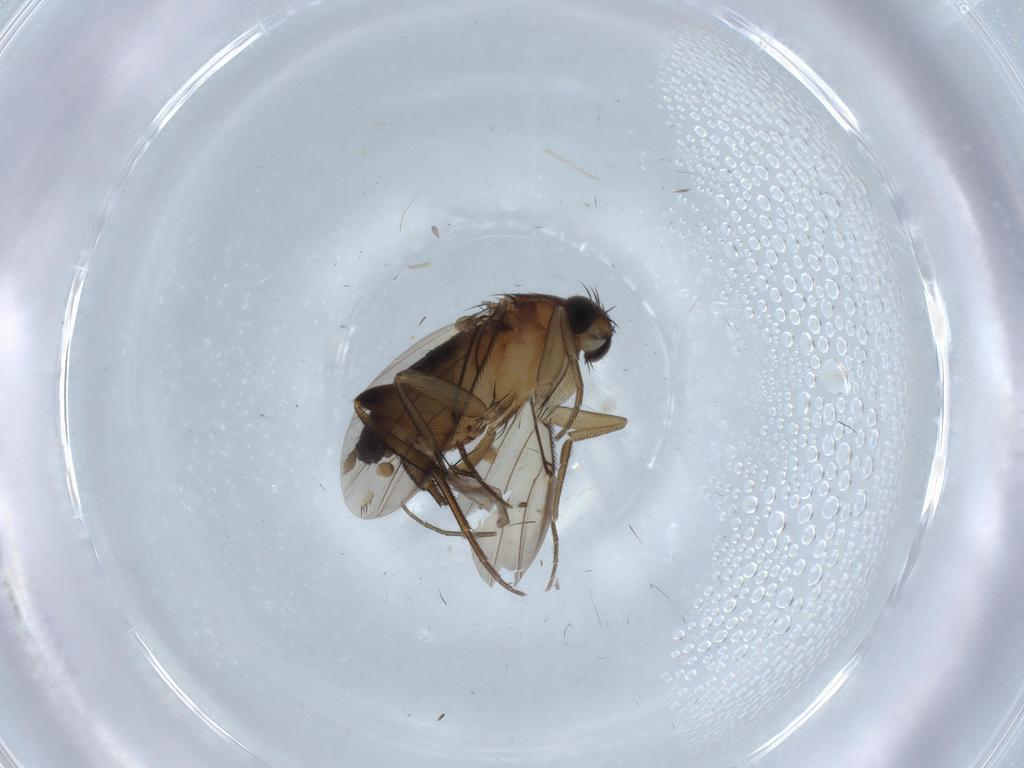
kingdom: Animalia
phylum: Arthropoda
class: Insecta
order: Diptera
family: Phoridae
